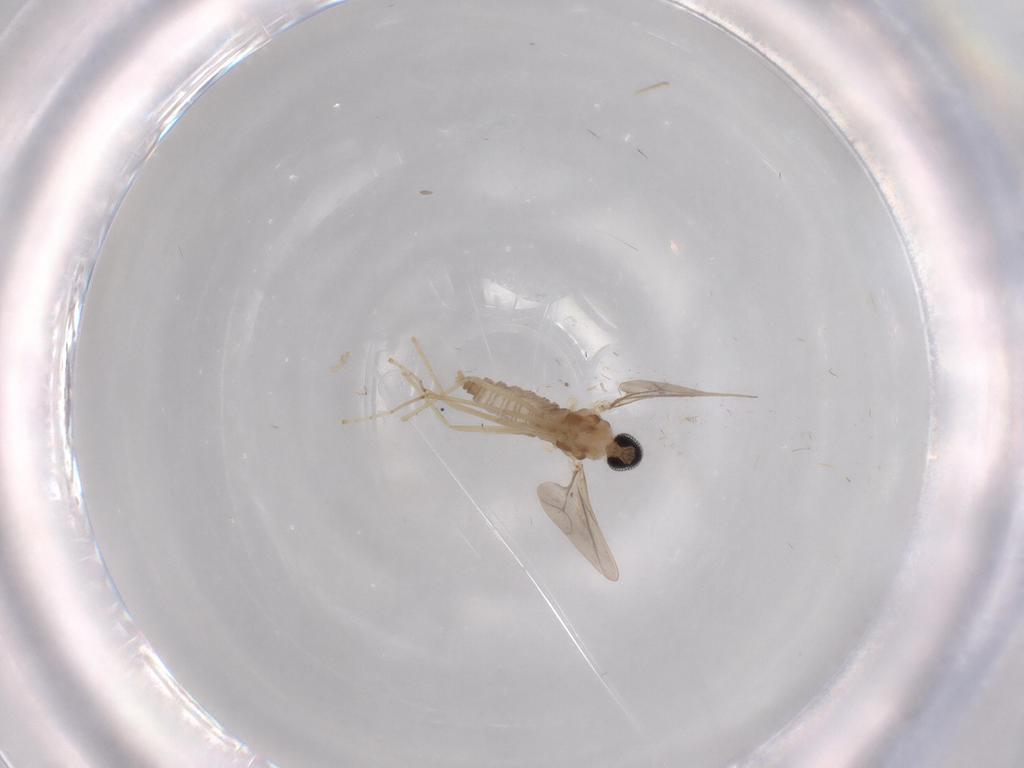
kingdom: Animalia
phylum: Arthropoda
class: Insecta
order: Diptera
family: Cecidomyiidae
